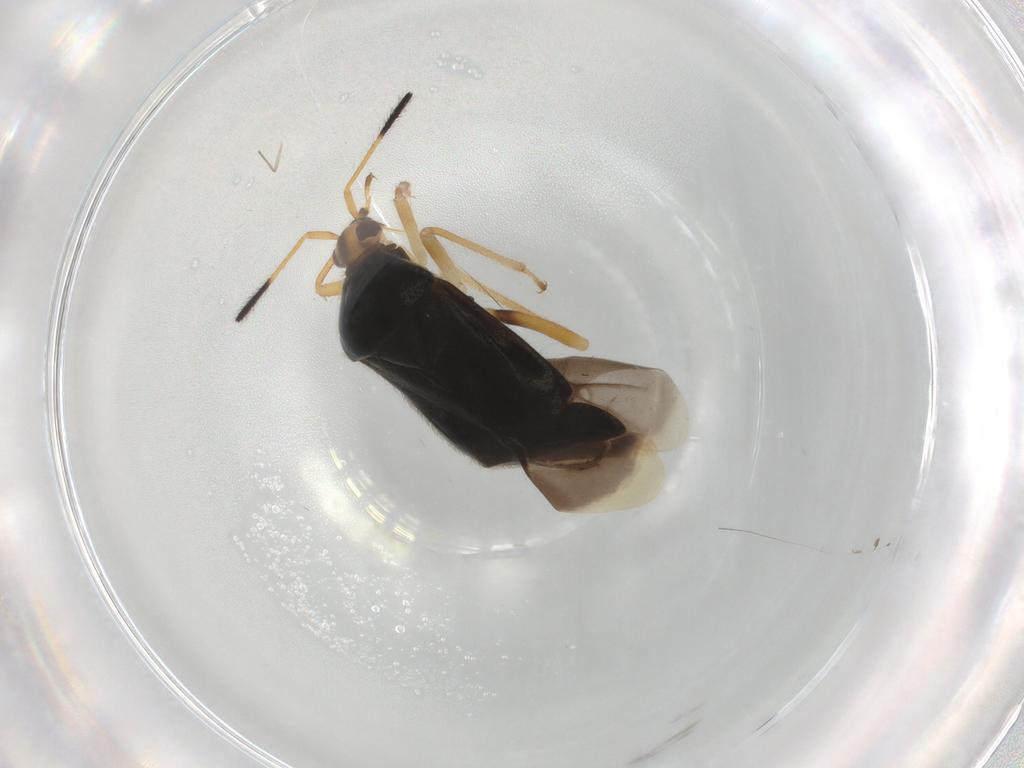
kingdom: Animalia
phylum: Arthropoda
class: Insecta
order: Hemiptera
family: Miridae
